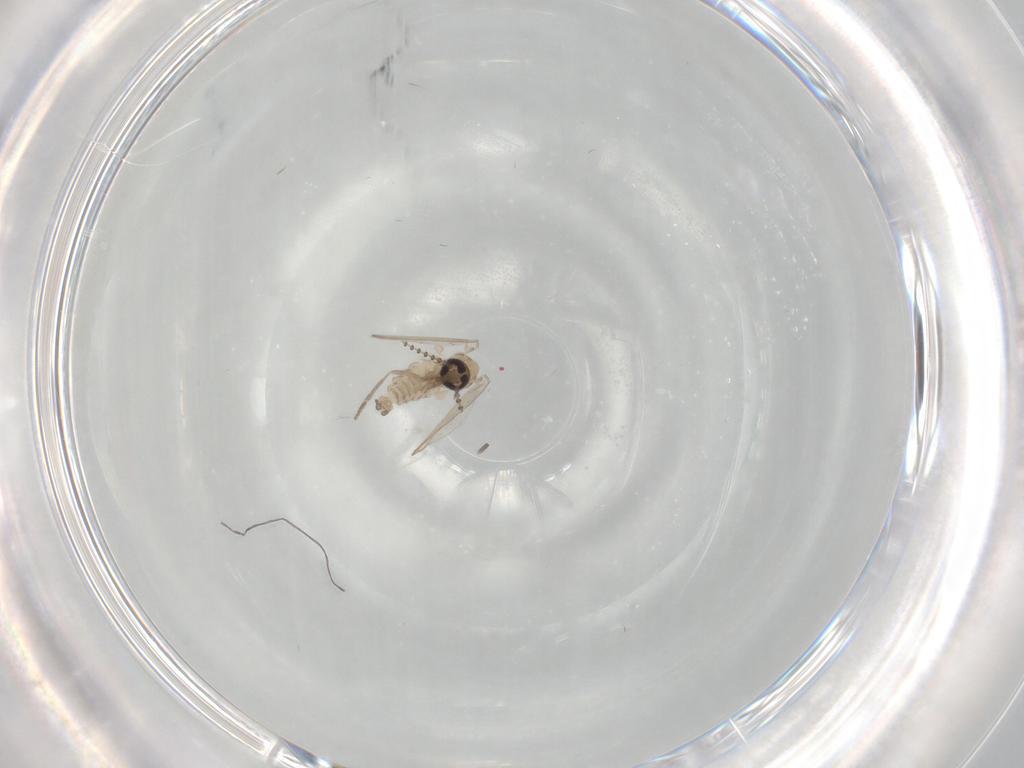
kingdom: Animalia
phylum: Arthropoda
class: Insecta
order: Diptera
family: Psychodidae
